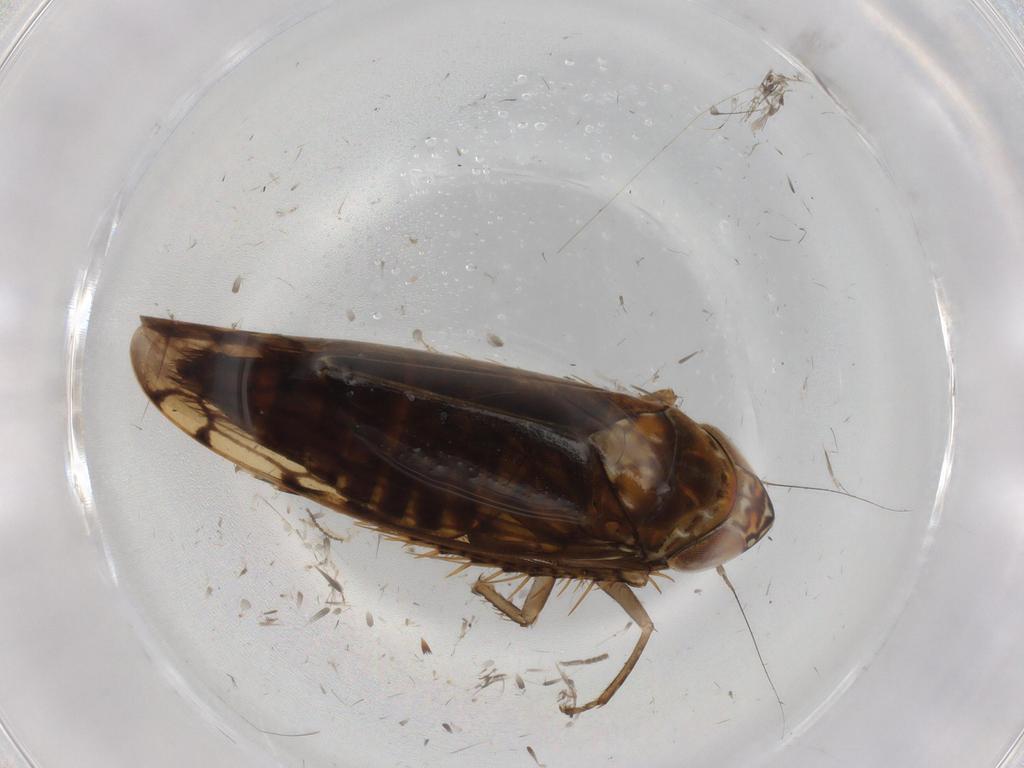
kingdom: Animalia
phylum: Arthropoda
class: Insecta
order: Hemiptera
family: Cicadellidae
